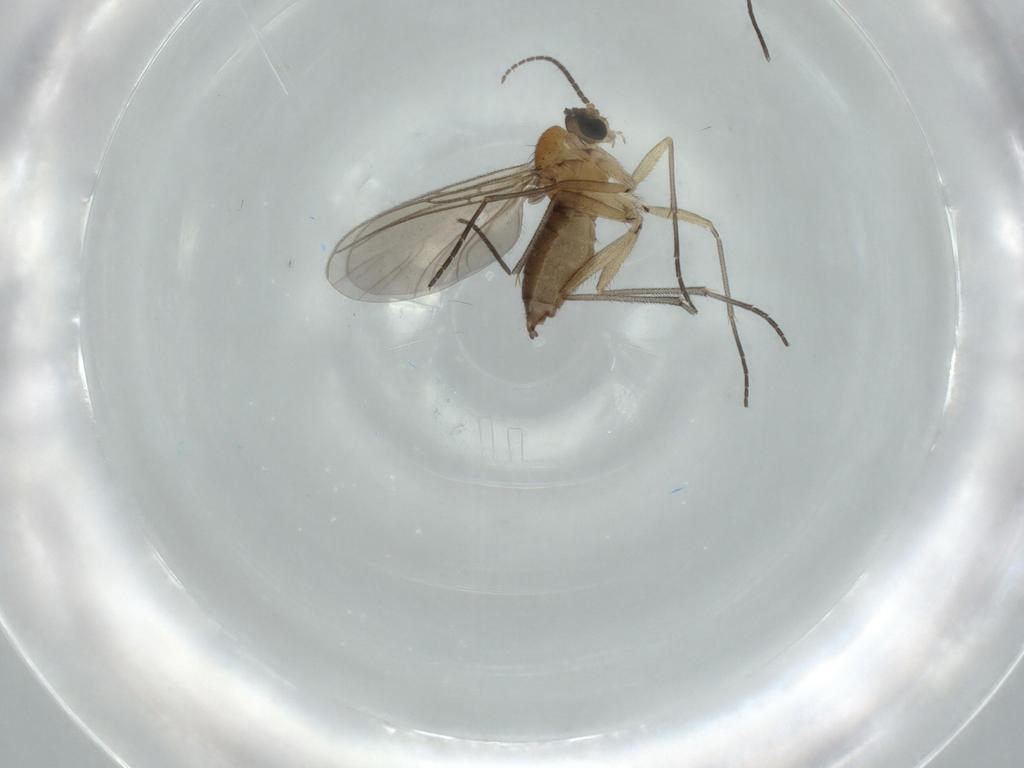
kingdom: Animalia
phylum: Arthropoda
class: Insecta
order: Diptera
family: Sciaridae
